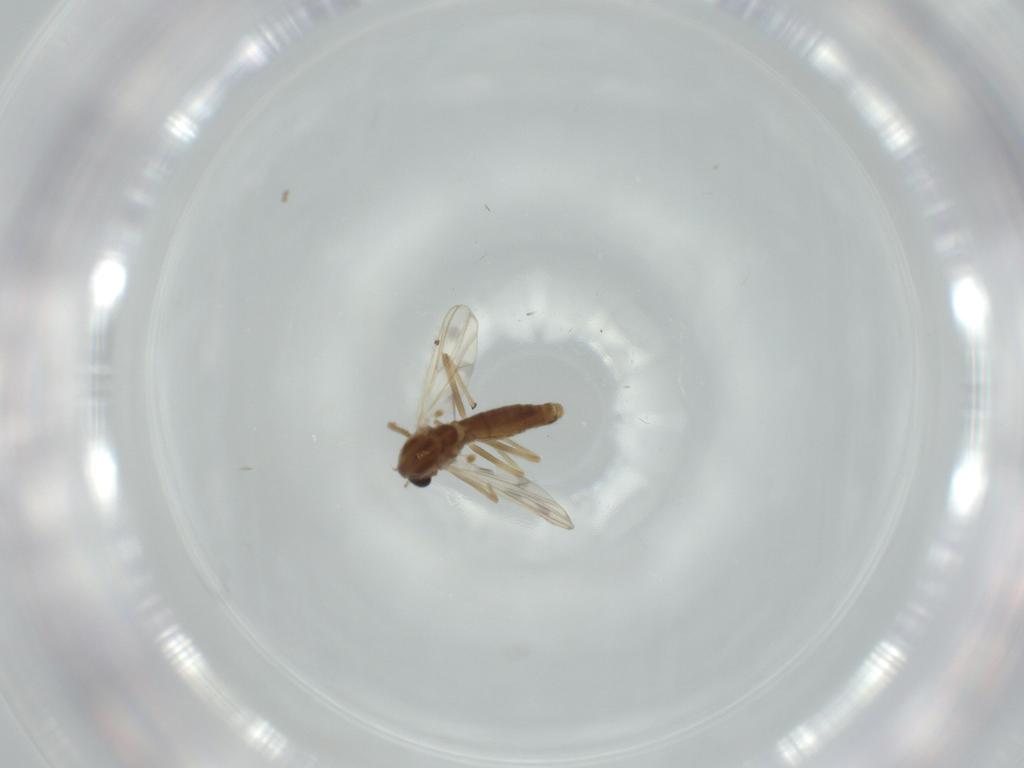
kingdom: Animalia
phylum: Arthropoda
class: Insecta
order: Diptera
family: Chironomidae
